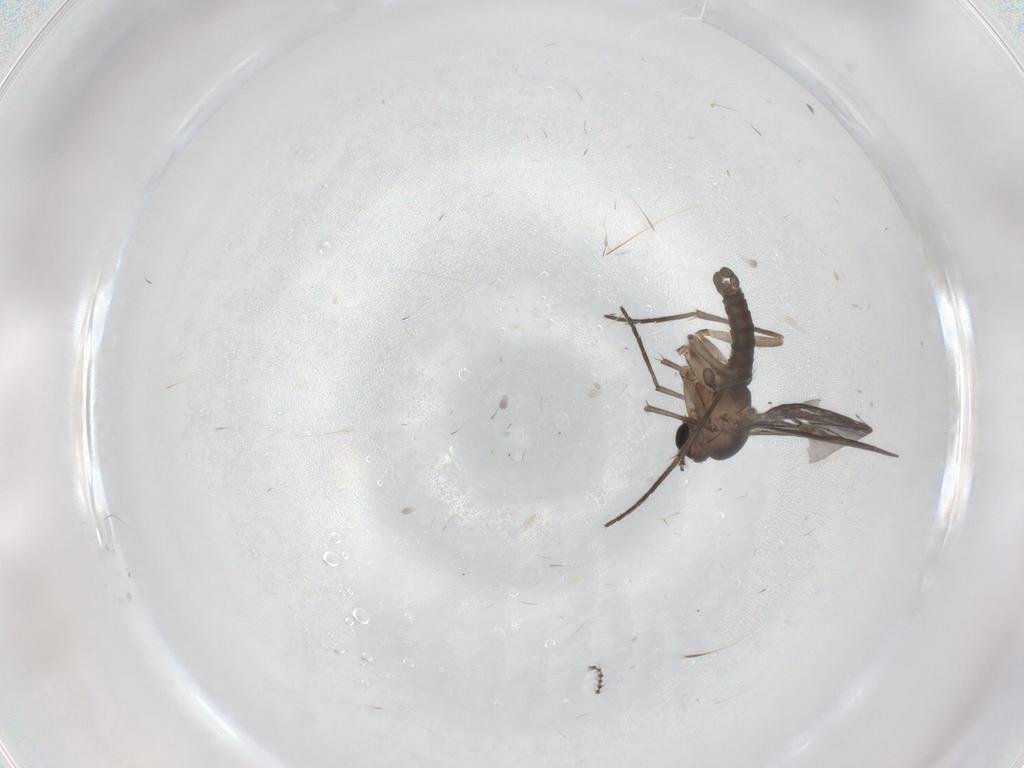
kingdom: Animalia
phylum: Arthropoda
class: Insecta
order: Diptera
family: Sciaridae
